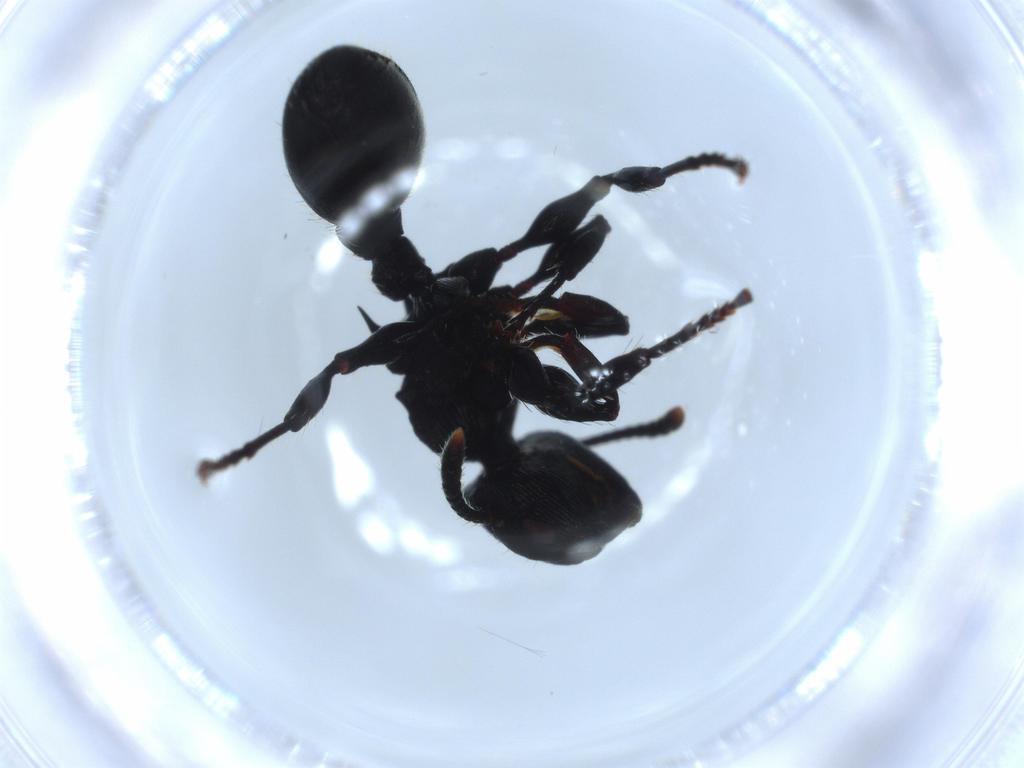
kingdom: Animalia
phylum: Arthropoda
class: Insecta
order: Hymenoptera
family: Formicidae
